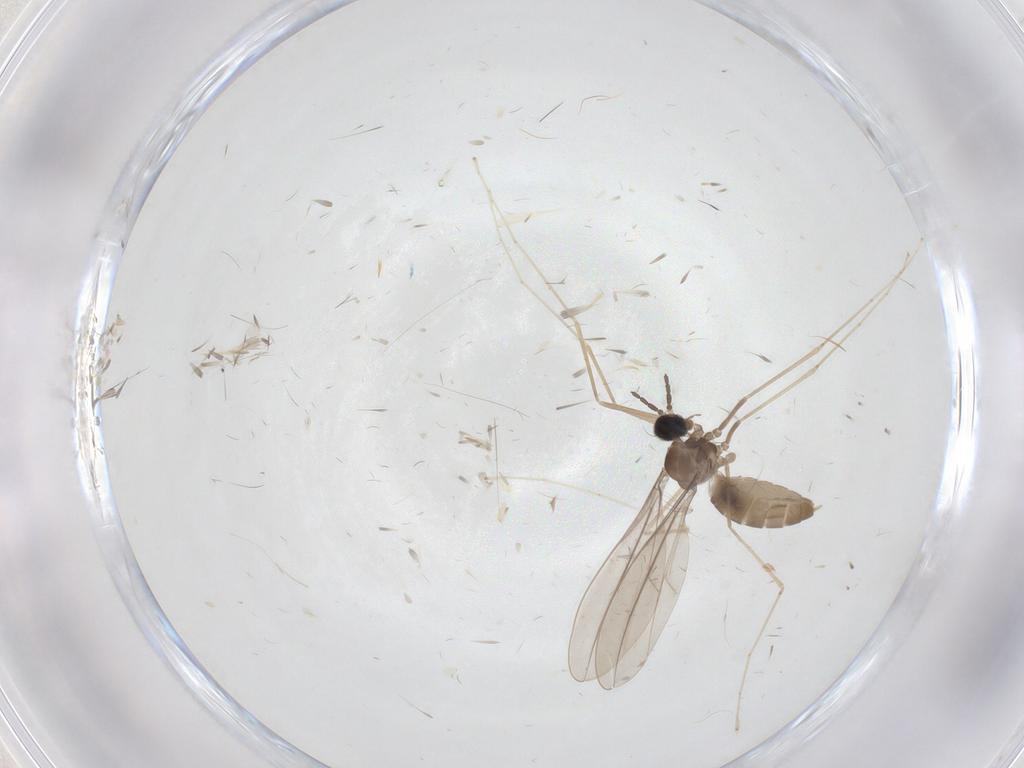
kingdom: Animalia
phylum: Arthropoda
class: Insecta
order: Diptera
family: Cecidomyiidae
